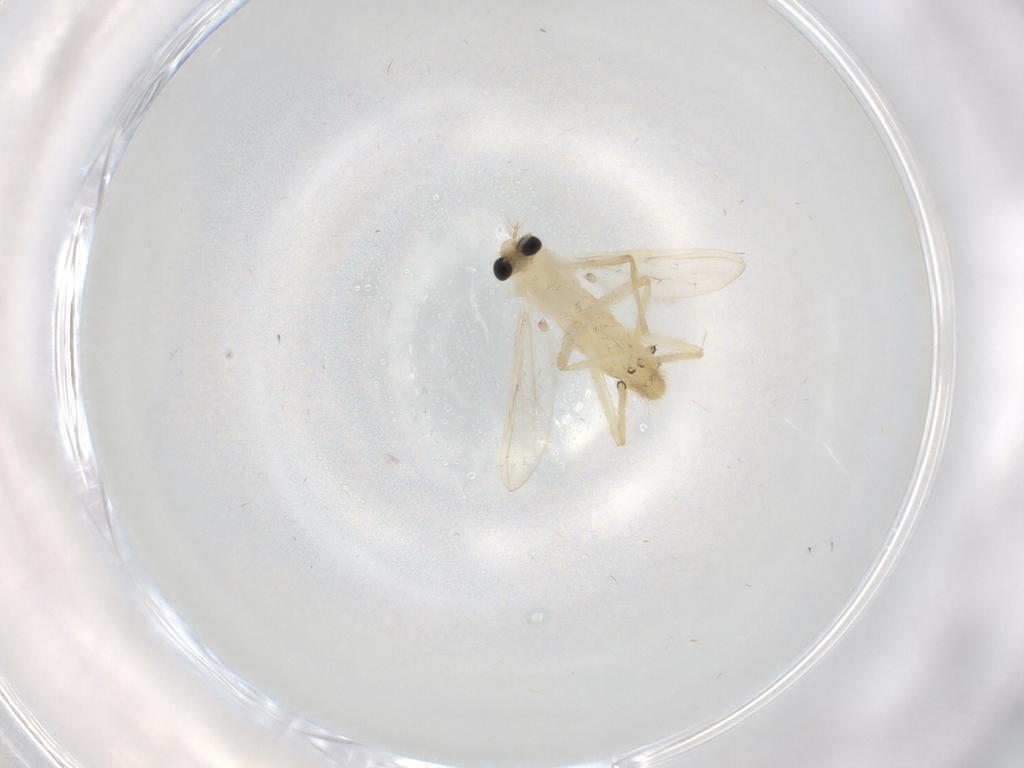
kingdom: Animalia
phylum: Arthropoda
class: Insecta
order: Diptera
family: Chironomidae
